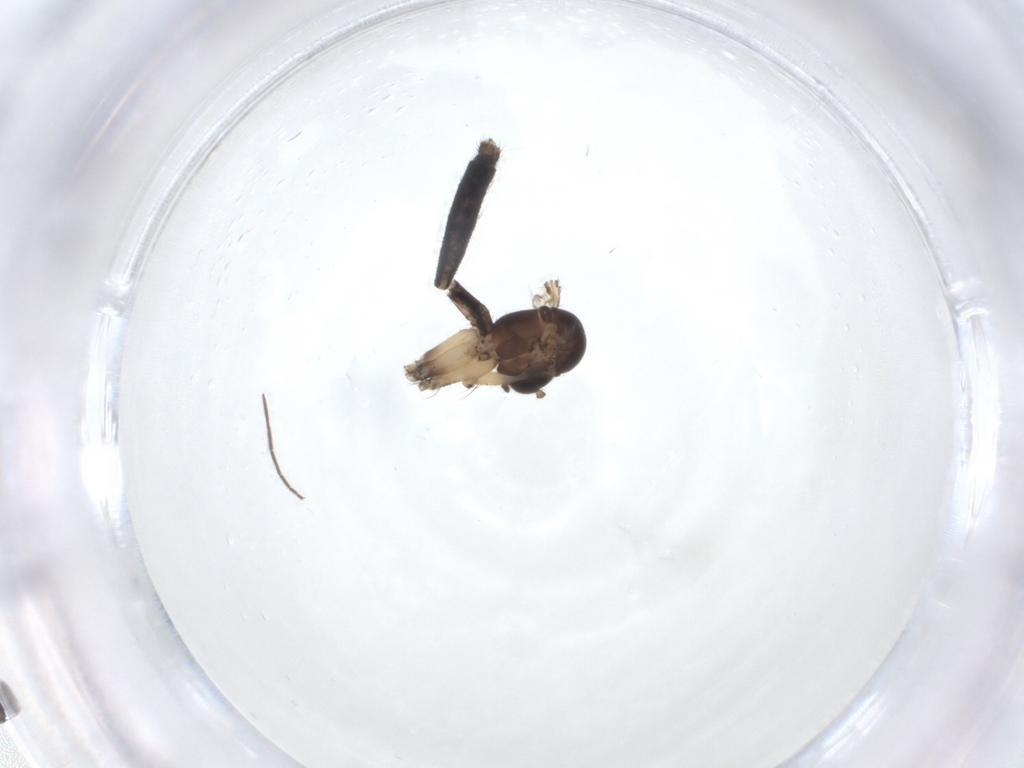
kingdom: Animalia
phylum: Arthropoda
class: Insecta
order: Diptera
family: Chironomidae
